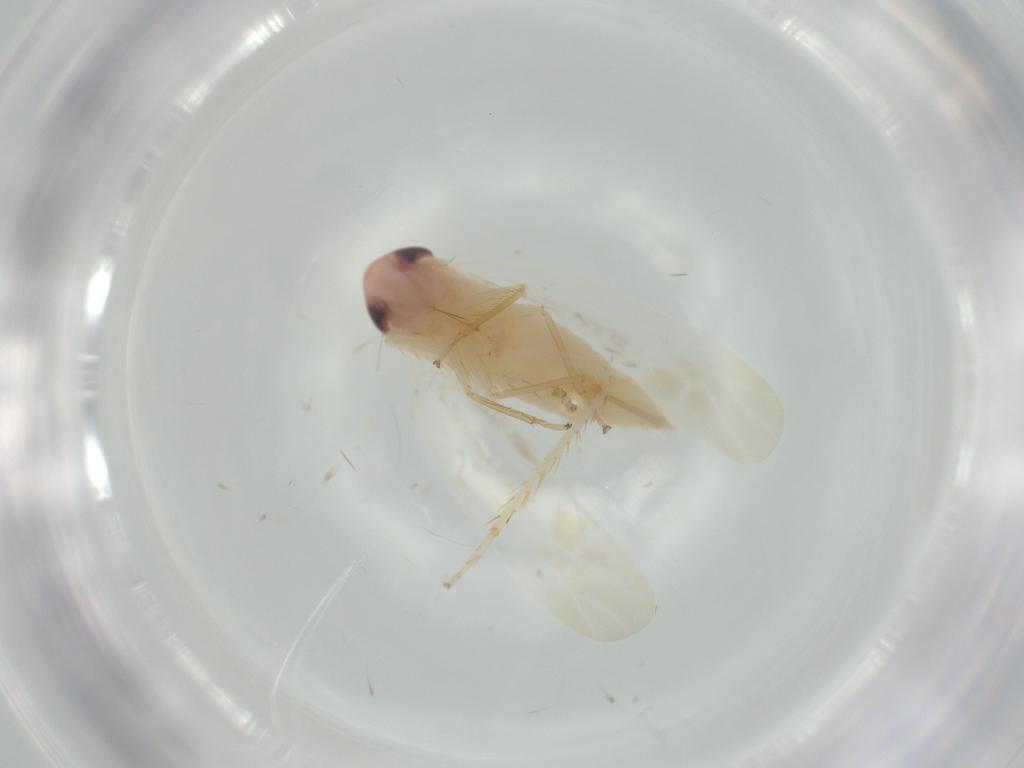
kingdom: Animalia
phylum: Arthropoda
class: Insecta
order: Hemiptera
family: Cicadellidae
